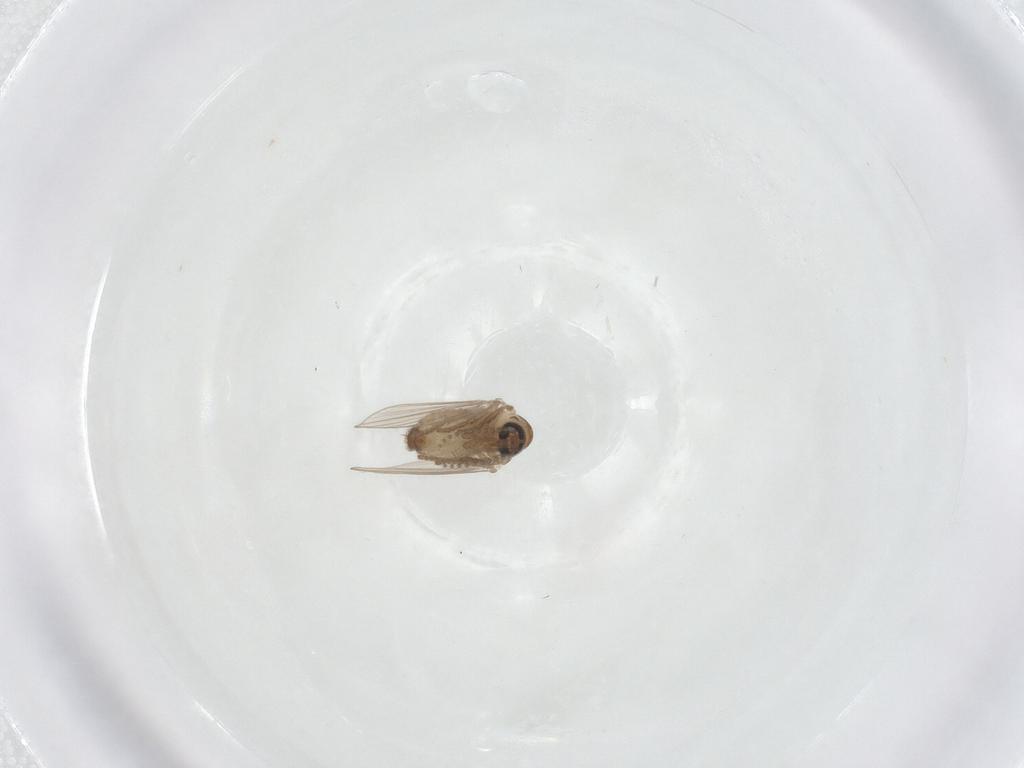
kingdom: Animalia
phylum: Arthropoda
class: Insecta
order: Diptera
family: Psychodidae
